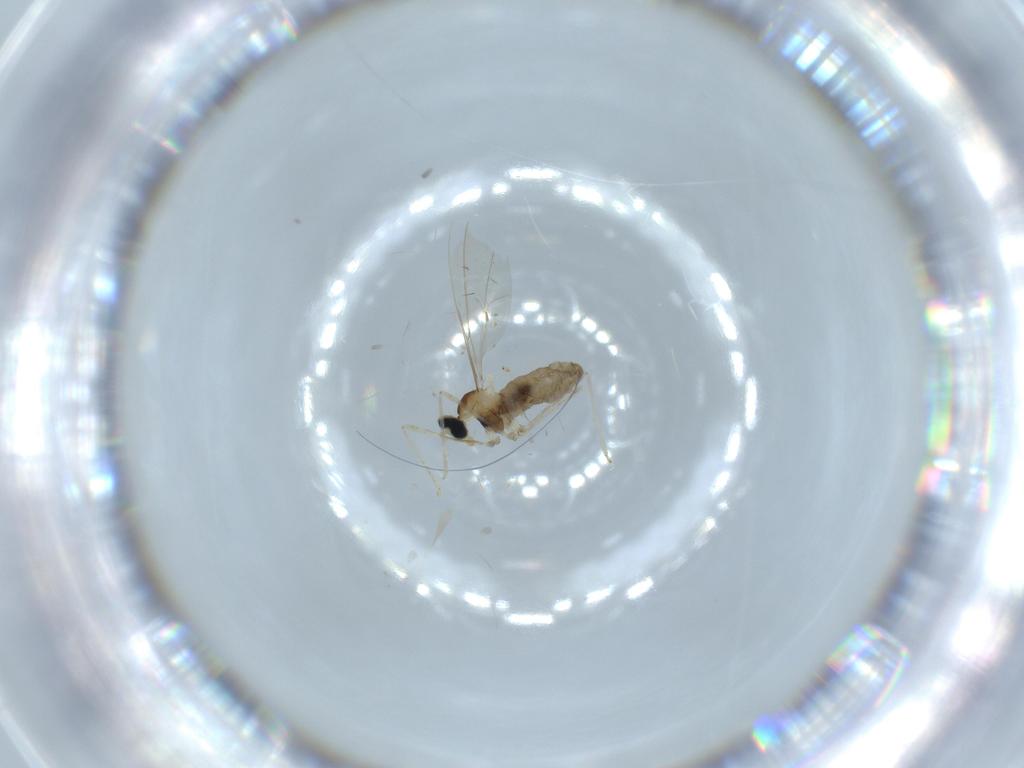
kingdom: Animalia
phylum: Arthropoda
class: Insecta
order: Diptera
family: Cecidomyiidae
